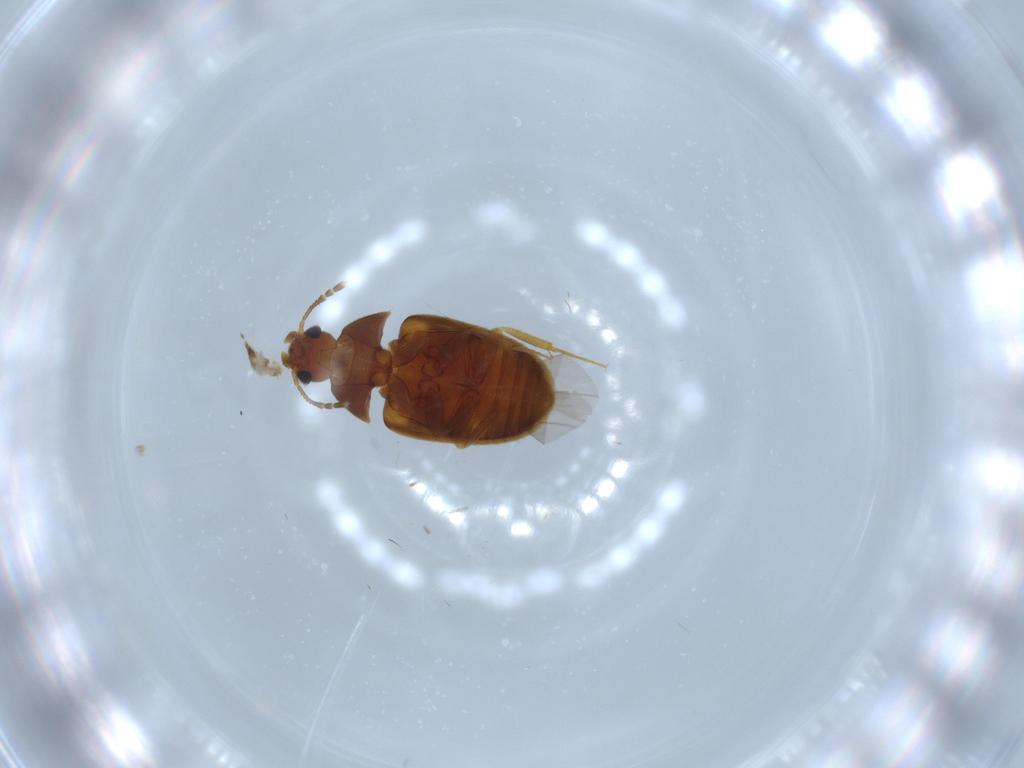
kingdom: Animalia
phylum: Arthropoda
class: Insecta
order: Coleoptera
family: Mycetophagidae
